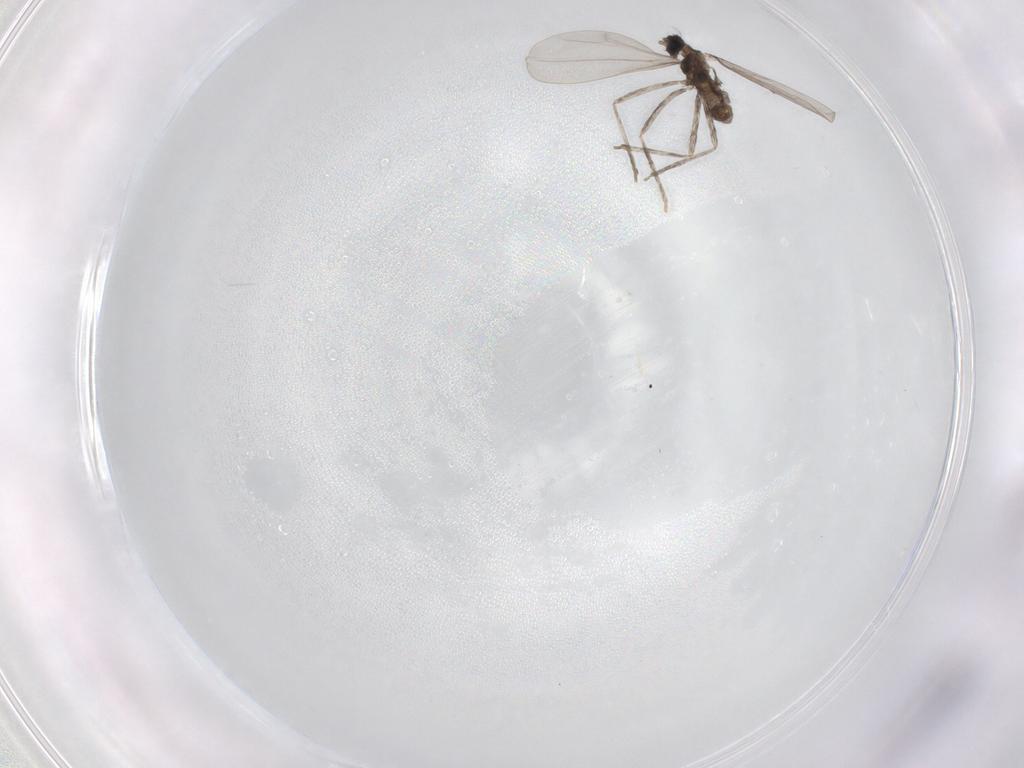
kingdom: Animalia
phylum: Arthropoda
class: Insecta
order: Diptera
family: Cecidomyiidae
